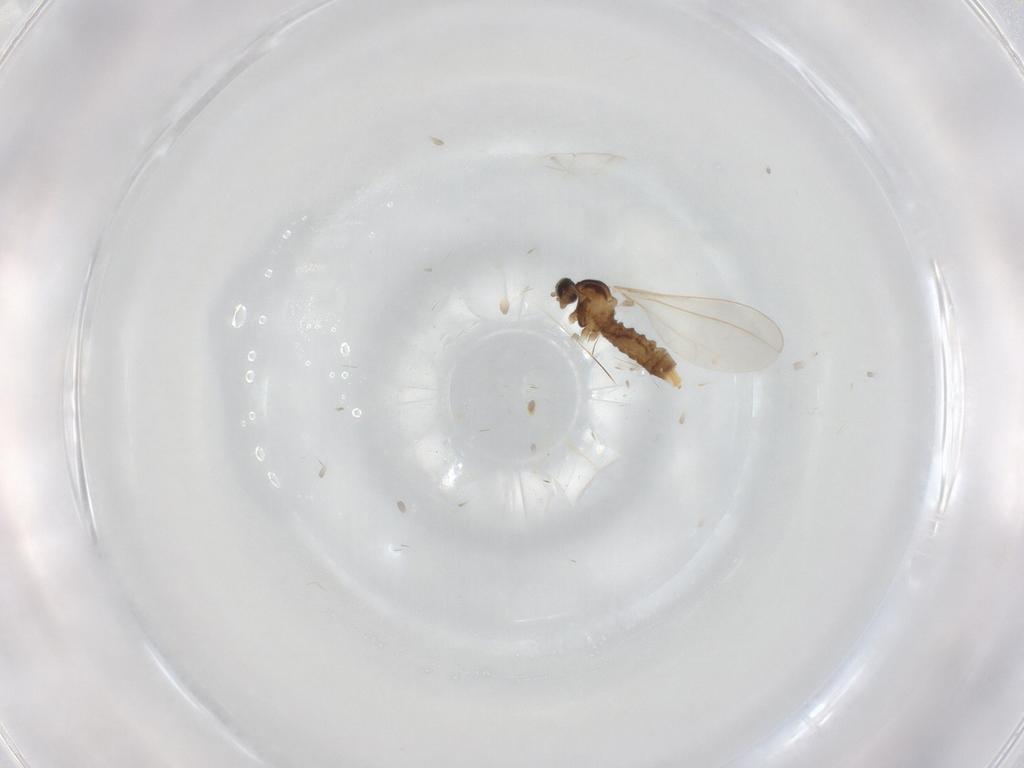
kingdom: Animalia
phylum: Arthropoda
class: Insecta
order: Diptera
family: Cecidomyiidae
